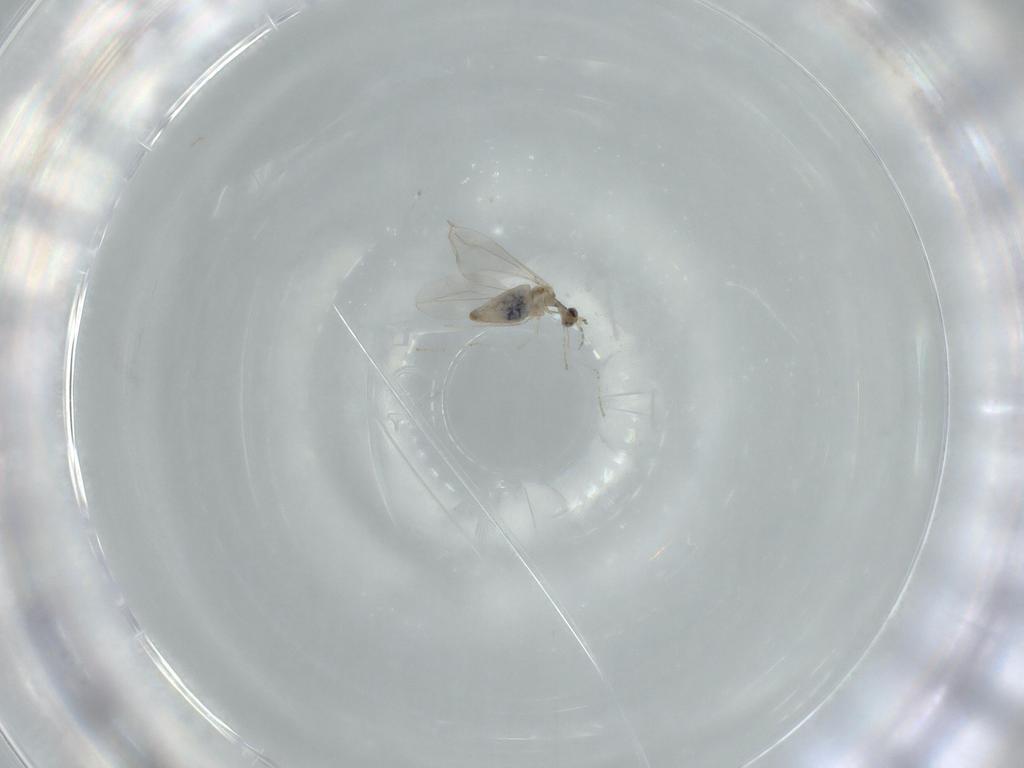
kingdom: Animalia
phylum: Arthropoda
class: Insecta
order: Diptera
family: Cecidomyiidae
